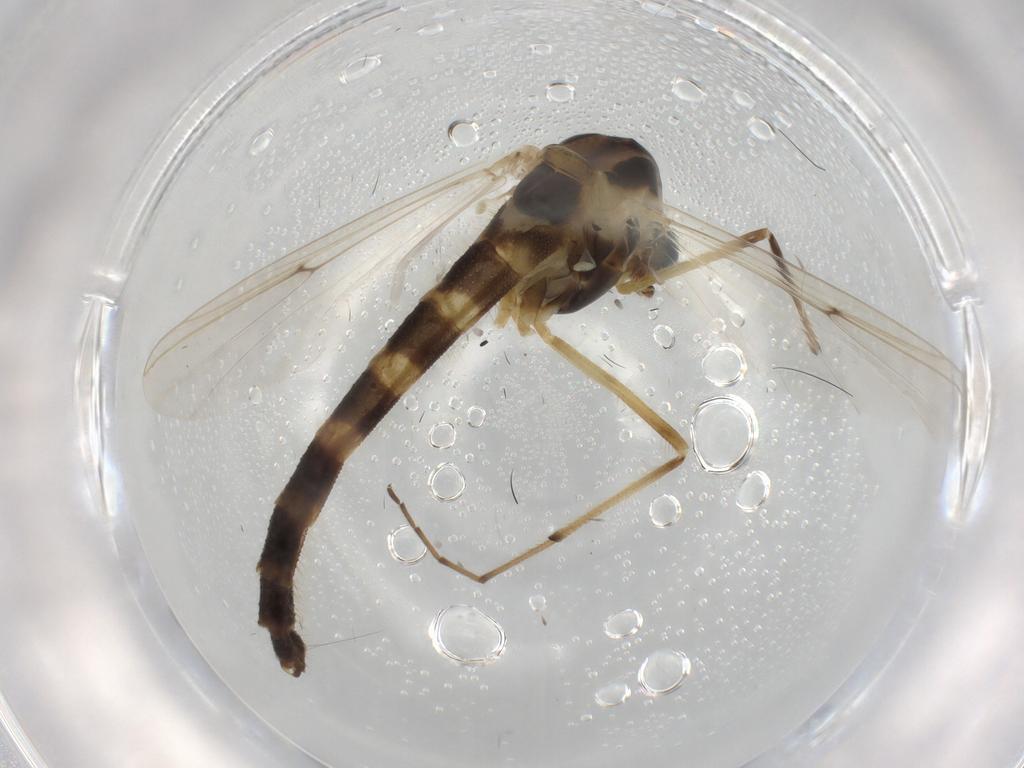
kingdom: Animalia
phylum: Arthropoda
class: Insecta
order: Diptera
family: Chironomidae
